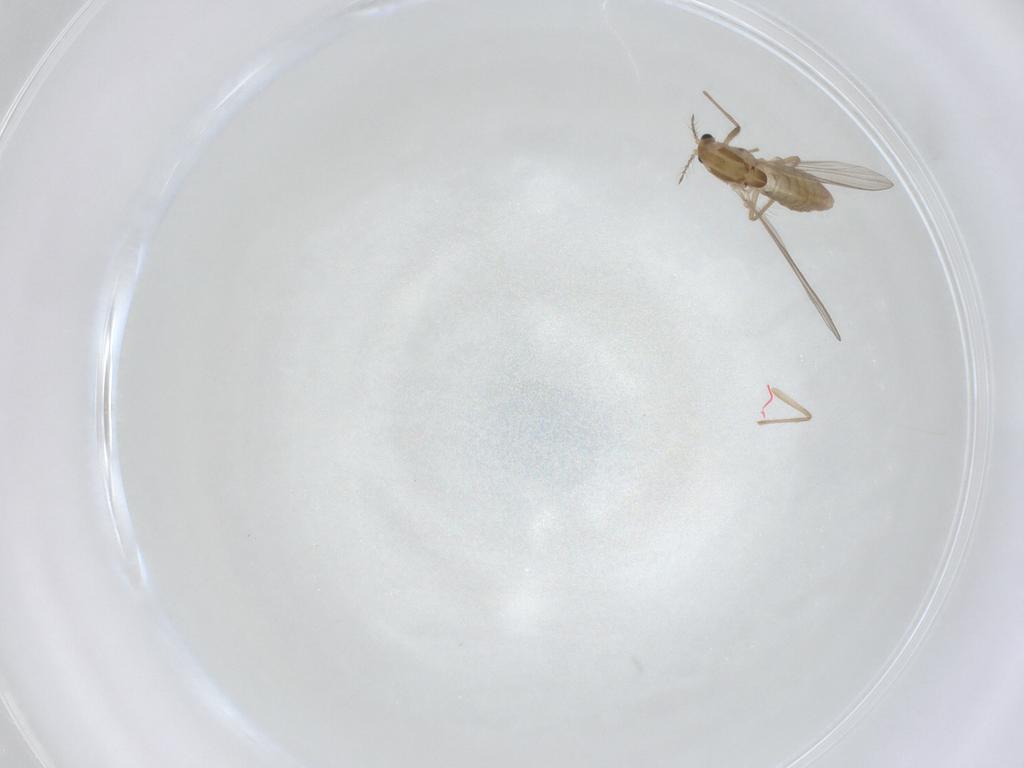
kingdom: Animalia
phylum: Arthropoda
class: Insecta
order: Diptera
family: Chironomidae
